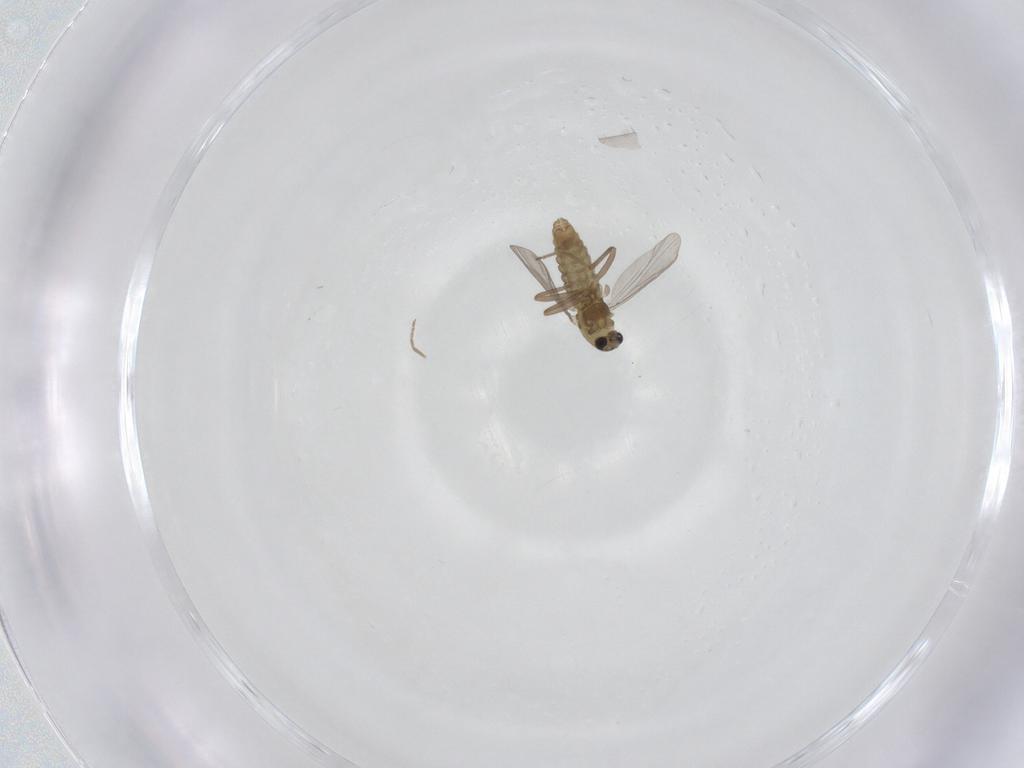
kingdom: Animalia
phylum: Arthropoda
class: Insecta
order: Diptera
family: Chironomidae
